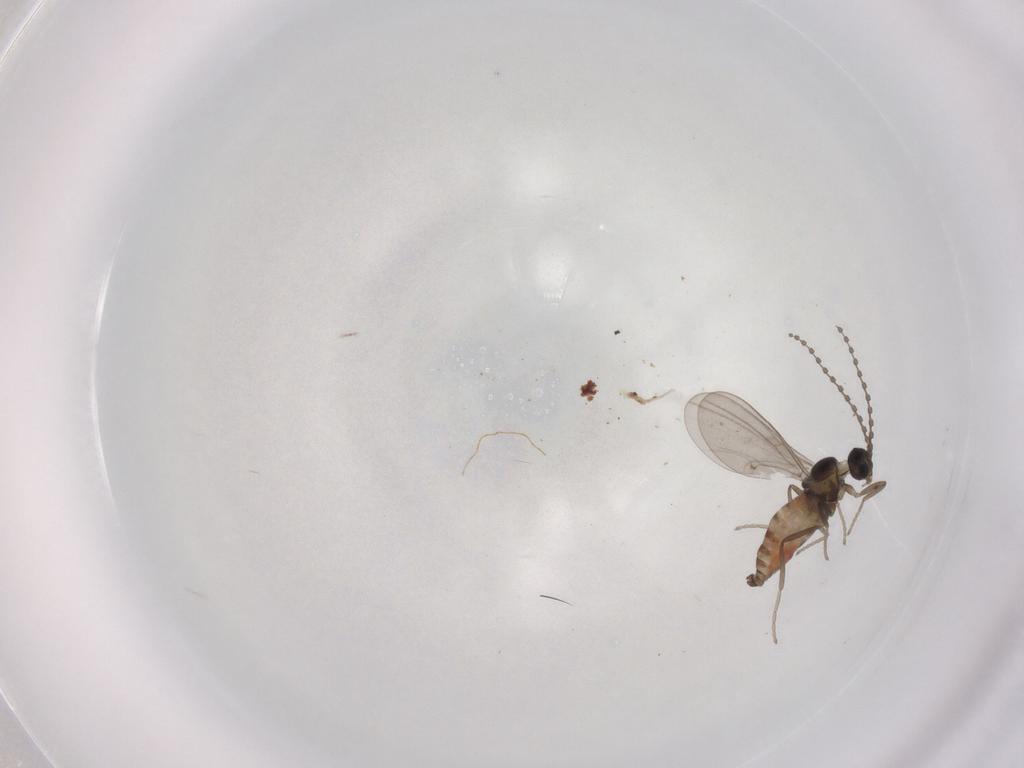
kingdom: Animalia
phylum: Arthropoda
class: Insecta
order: Diptera
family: Cecidomyiidae
